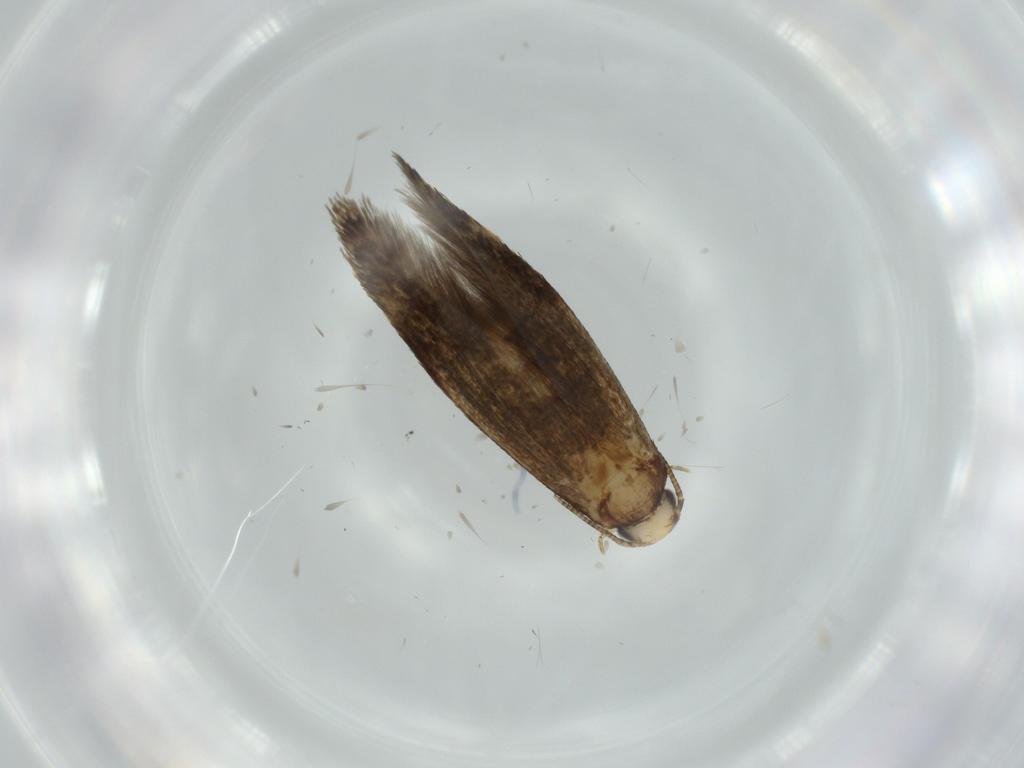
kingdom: Animalia
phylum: Arthropoda
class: Insecta
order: Lepidoptera
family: Tineidae
